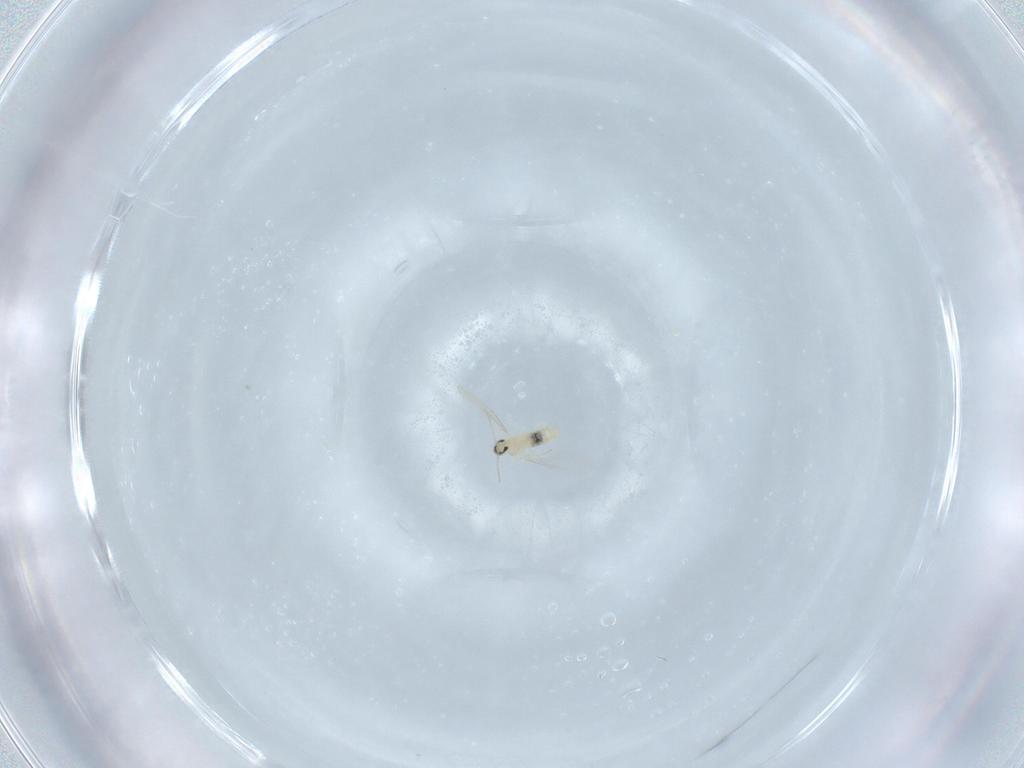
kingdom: Animalia
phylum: Arthropoda
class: Insecta
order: Diptera
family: Cecidomyiidae
